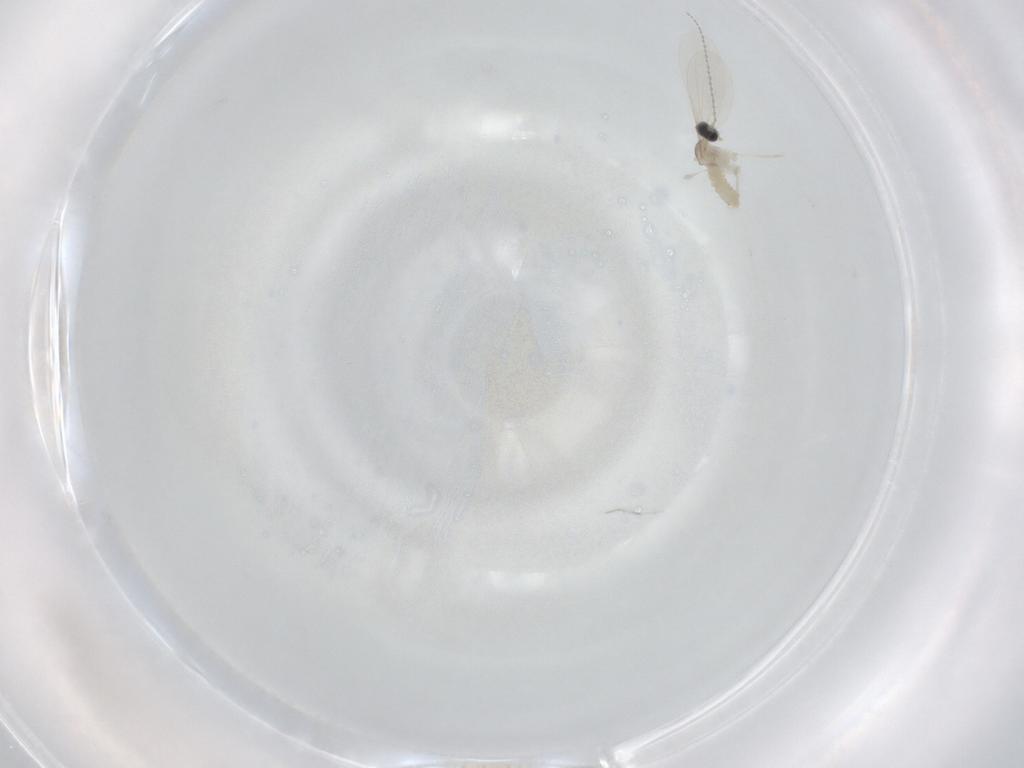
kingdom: Animalia
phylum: Arthropoda
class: Insecta
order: Diptera
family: Cecidomyiidae
